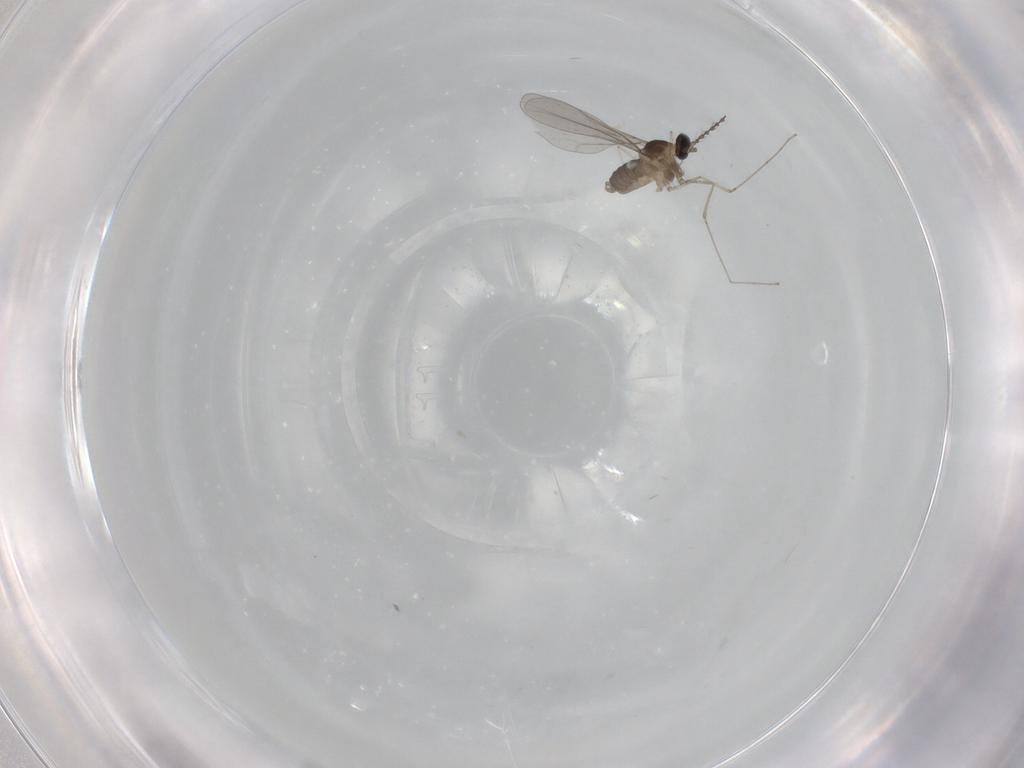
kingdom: Animalia
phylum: Arthropoda
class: Insecta
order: Diptera
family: Cecidomyiidae
